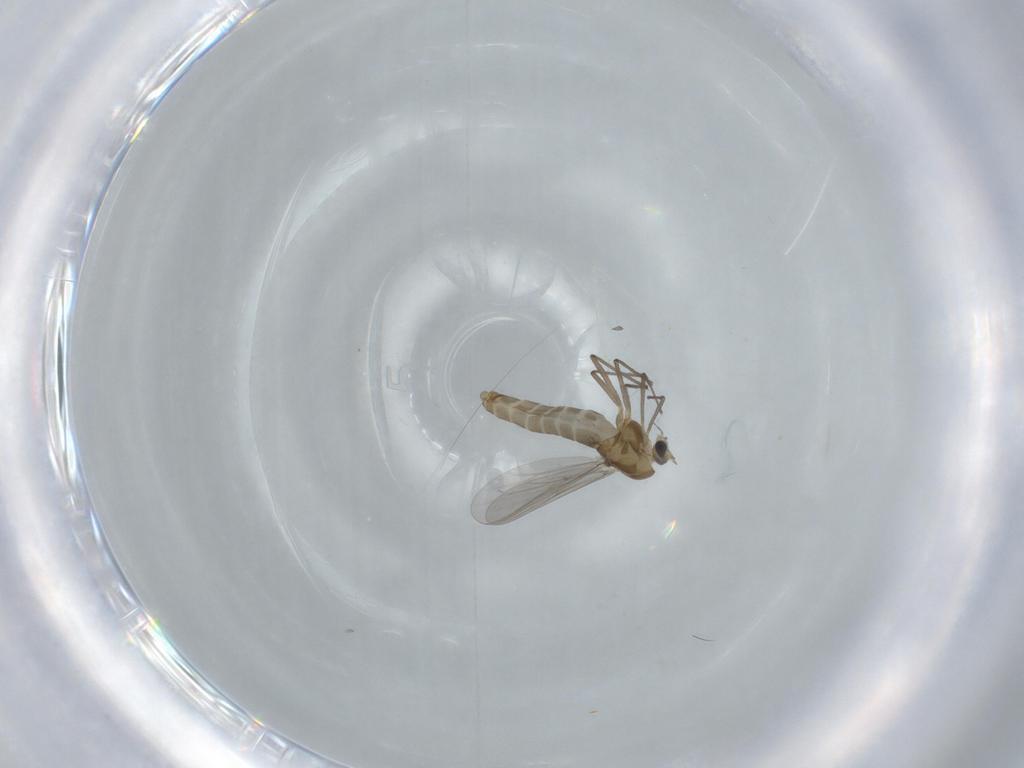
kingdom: Animalia
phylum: Arthropoda
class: Insecta
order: Diptera
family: Cecidomyiidae
